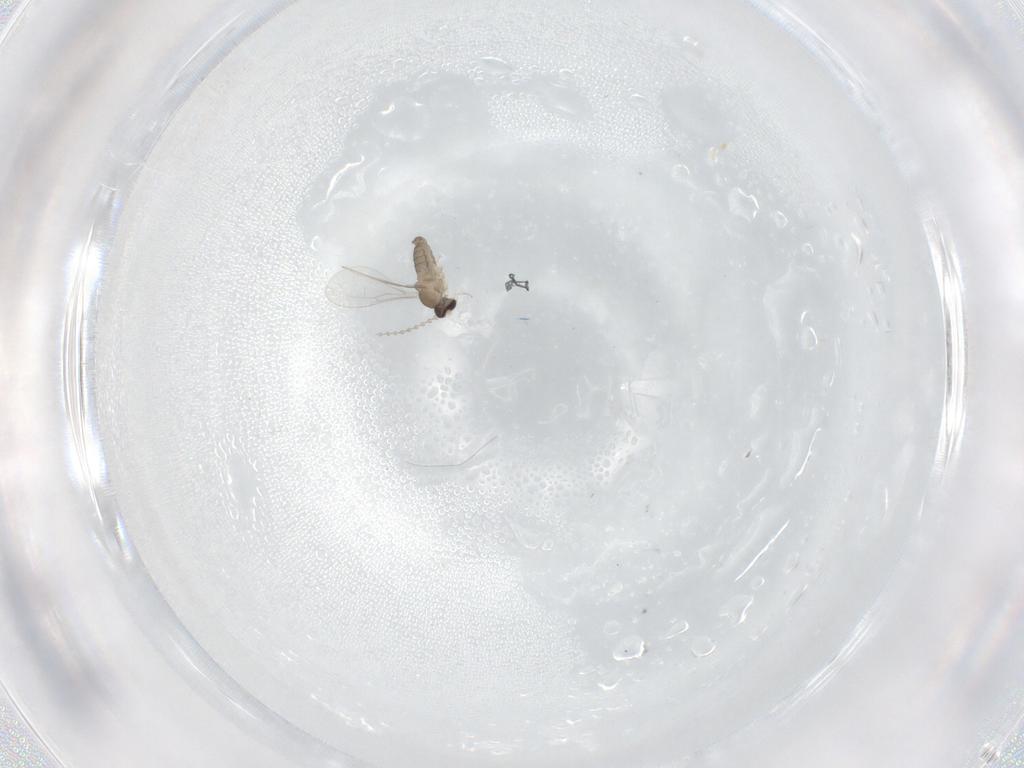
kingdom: Animalia
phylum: Arthropoda
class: Insecta
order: Diptera
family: Cecidomyiidae
